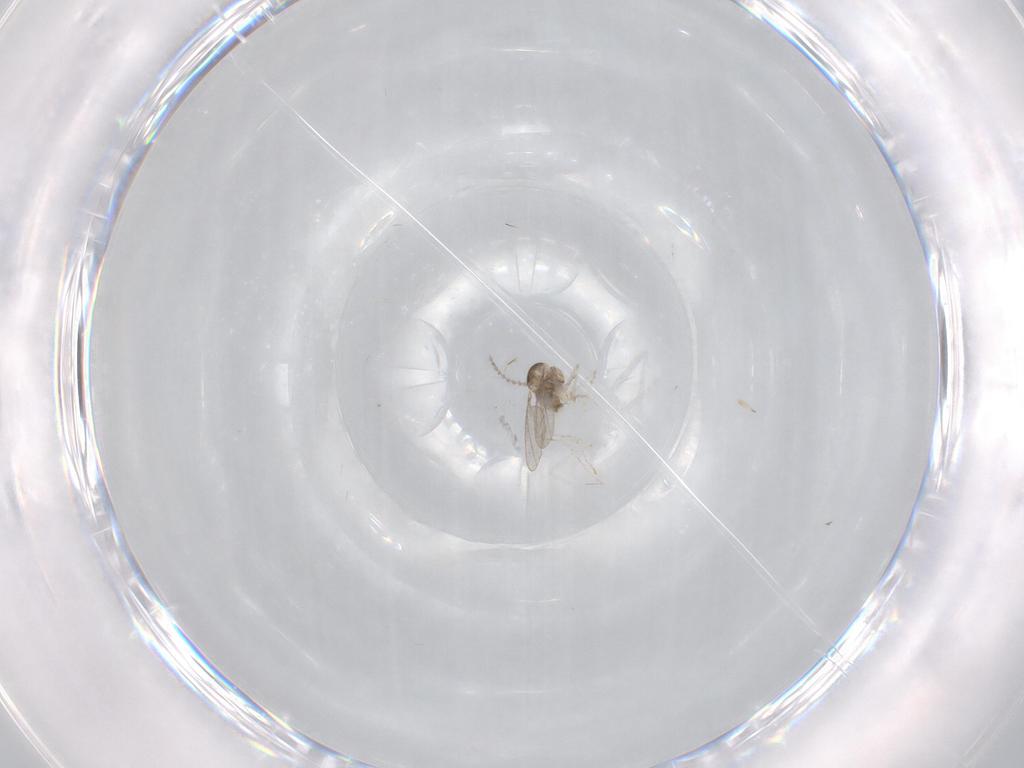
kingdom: Animalia
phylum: Arthropoda
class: Insecta
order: Diptera
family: Cecidomyiidae
